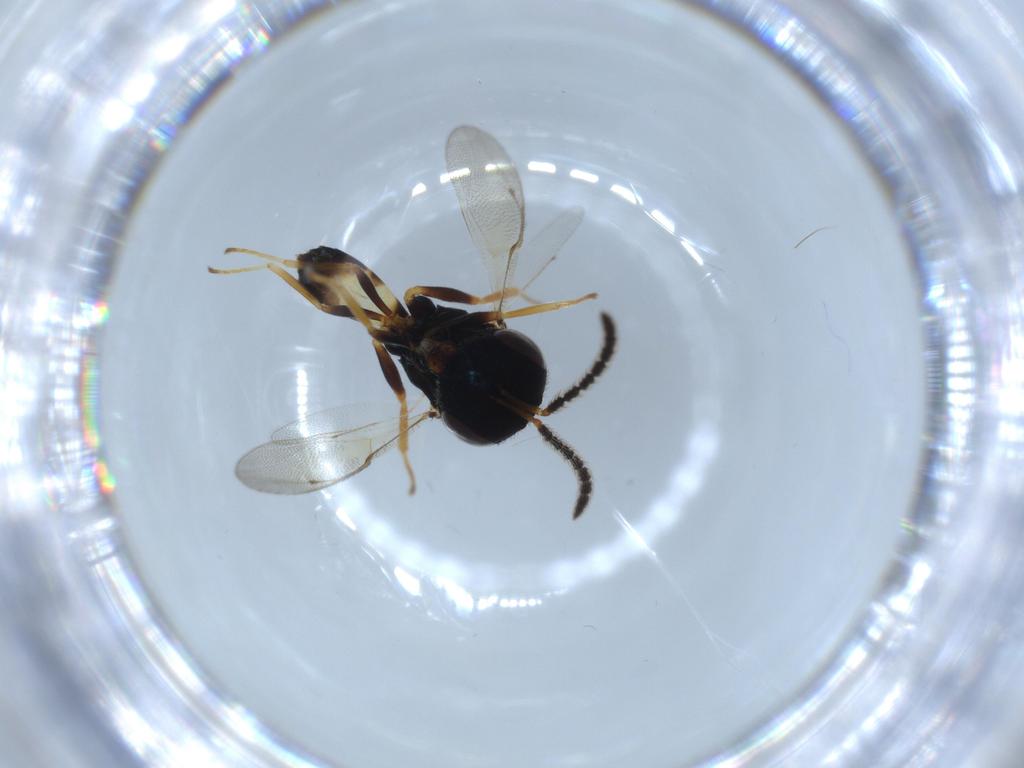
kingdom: Animalia
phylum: Arthropoda
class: Insecta
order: Hymenoptera
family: Pteromalidae
